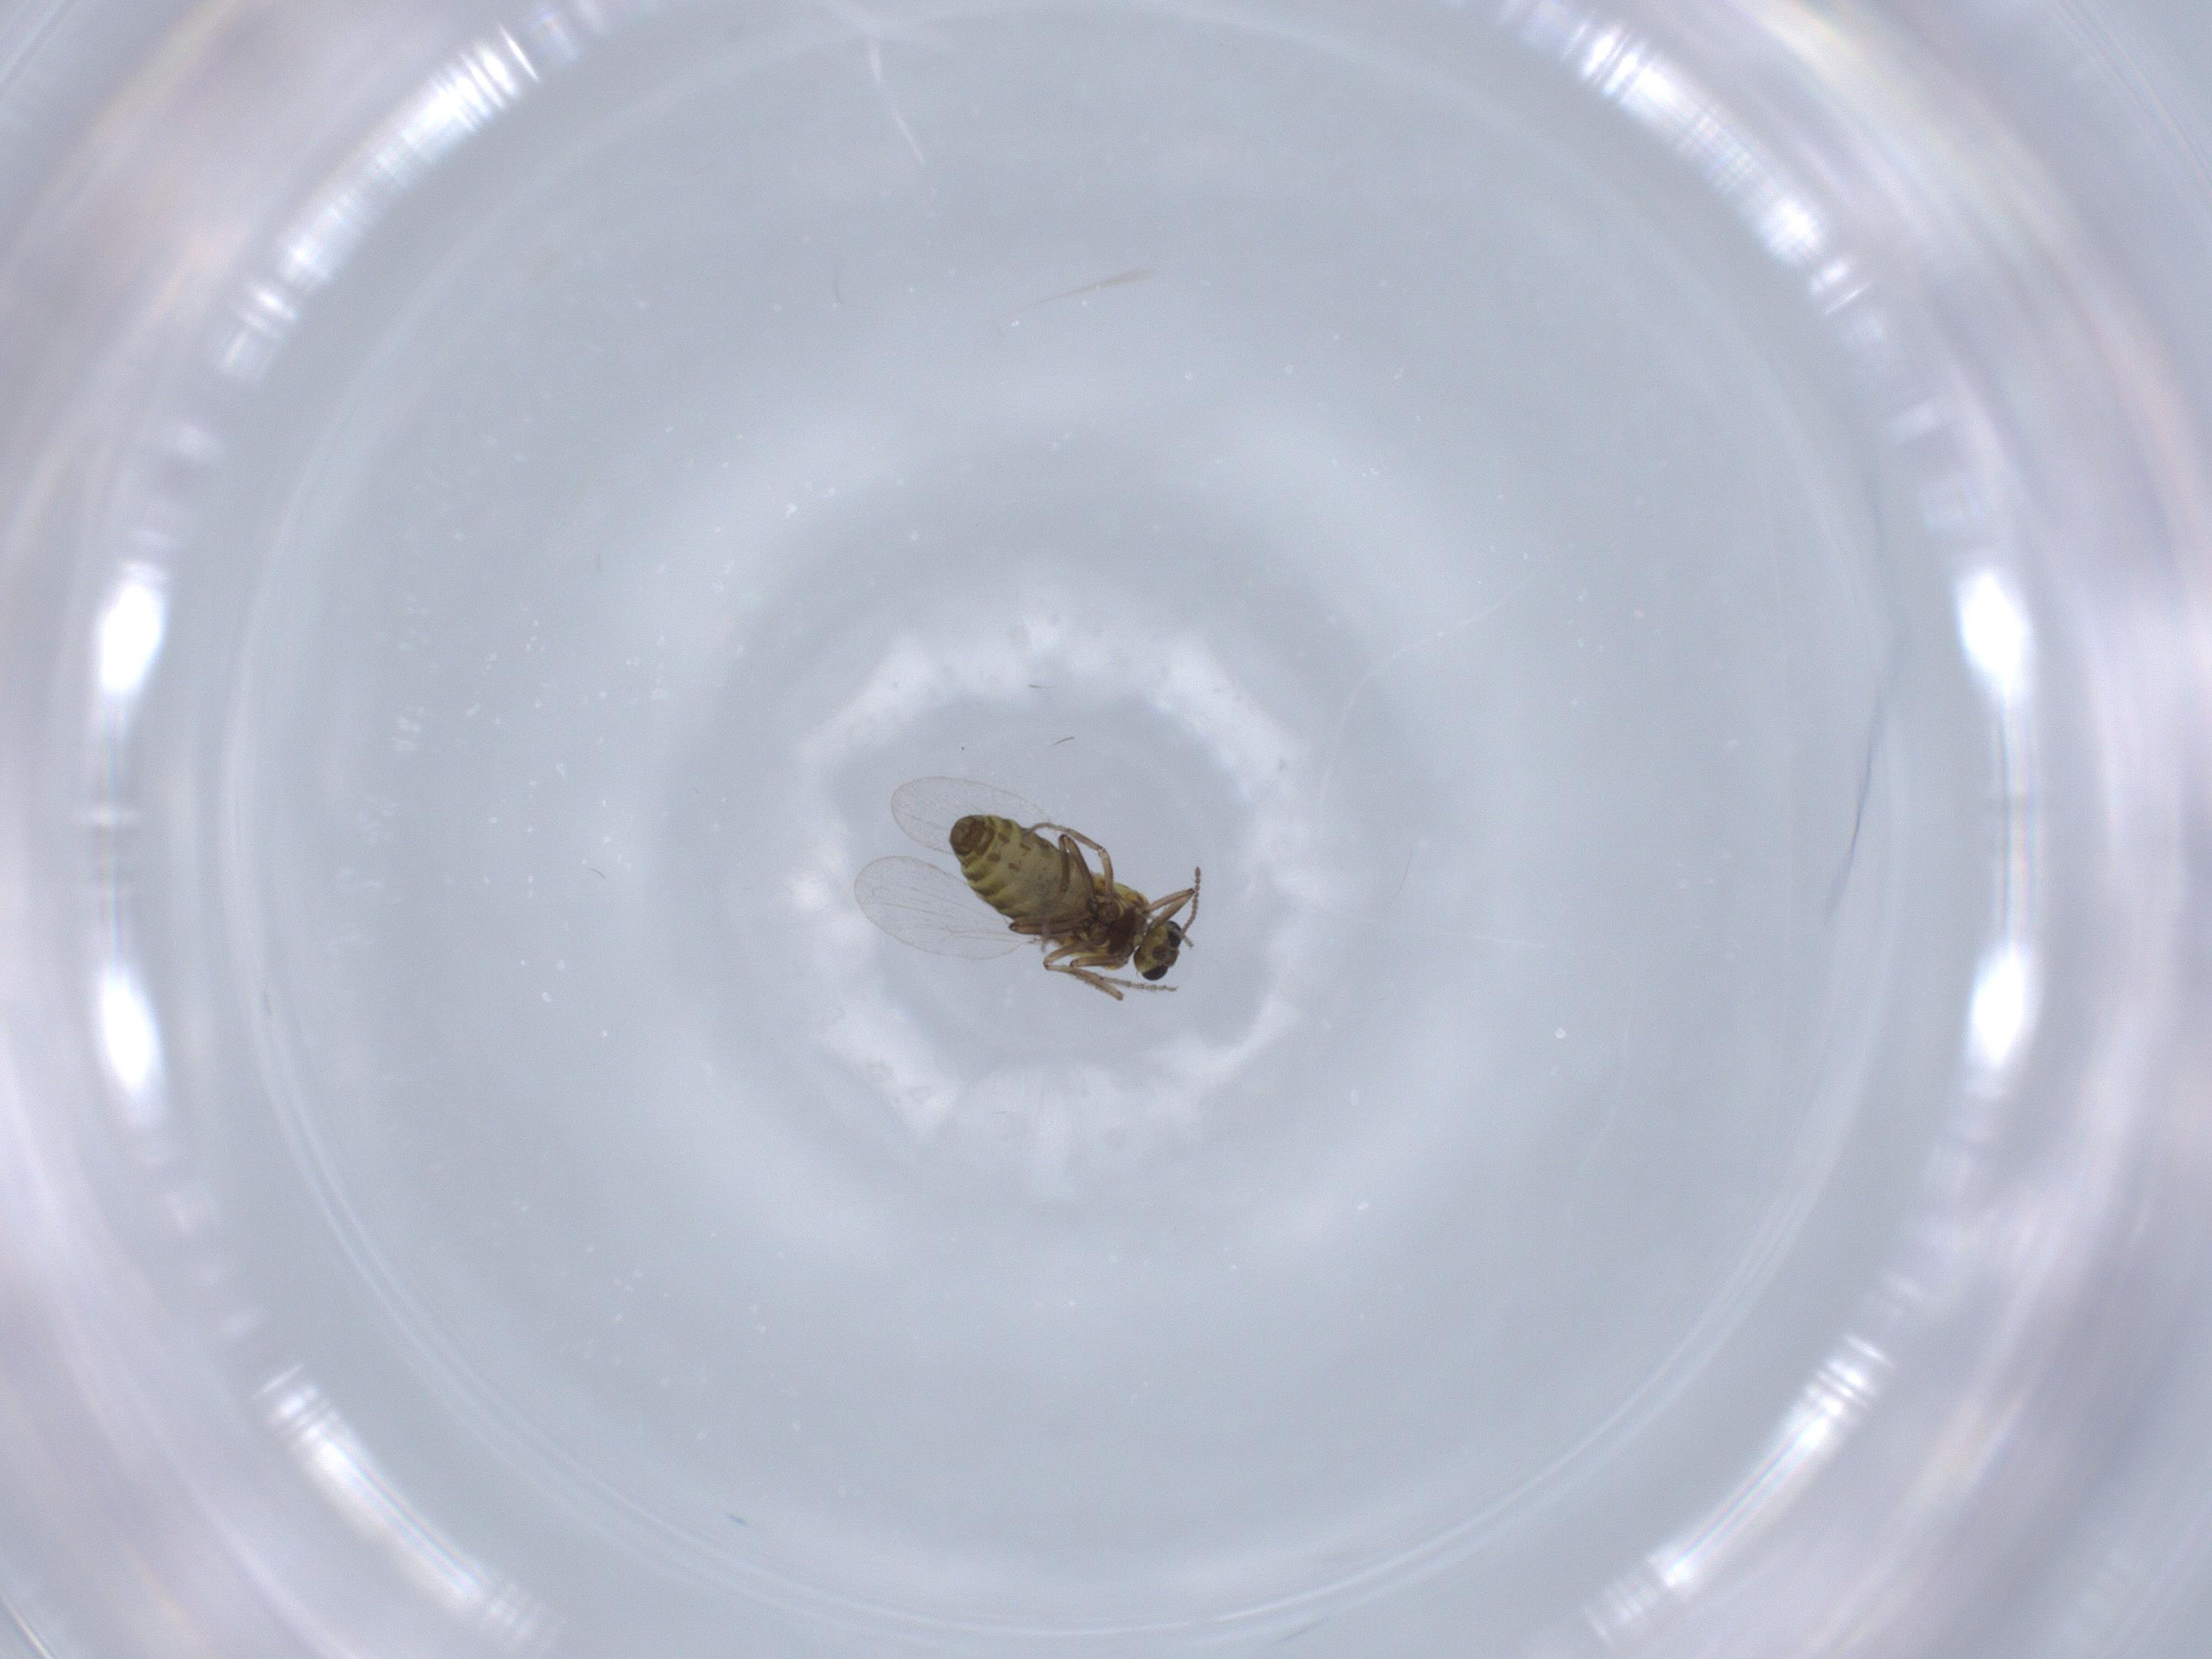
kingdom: Animalia
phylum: Arthropoda
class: Insecta
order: Diptera
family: Ceratopogonidae
